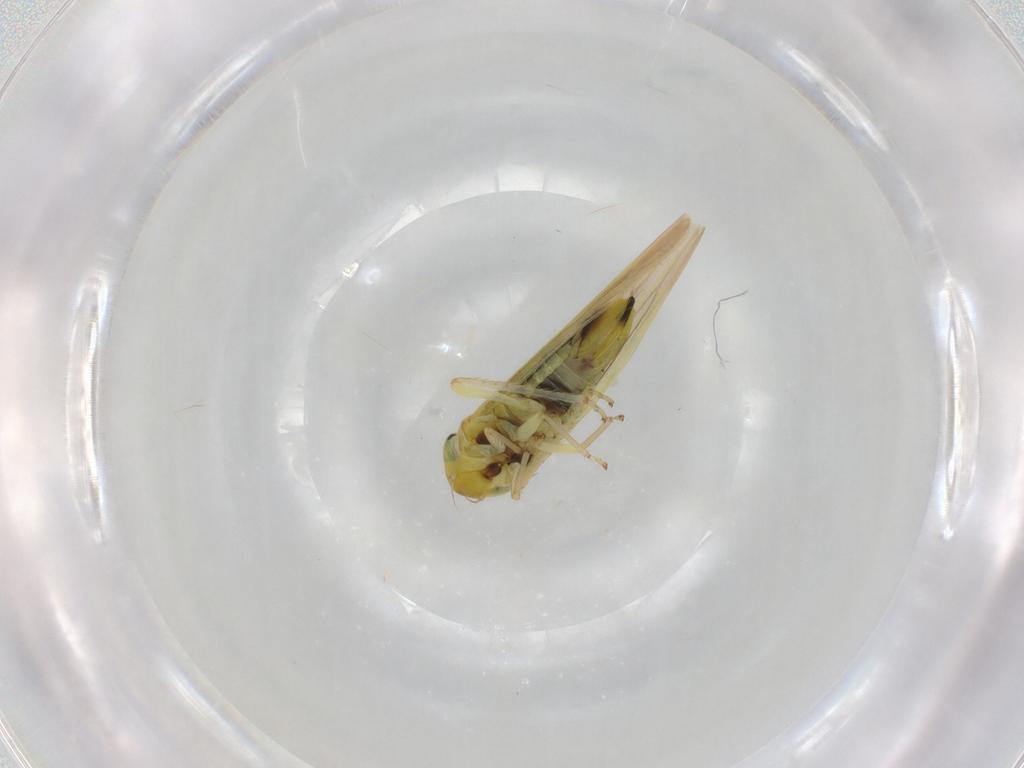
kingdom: Animalia
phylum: Arthropoda
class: Insecta
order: Hemiptera
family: Cicadellidae
